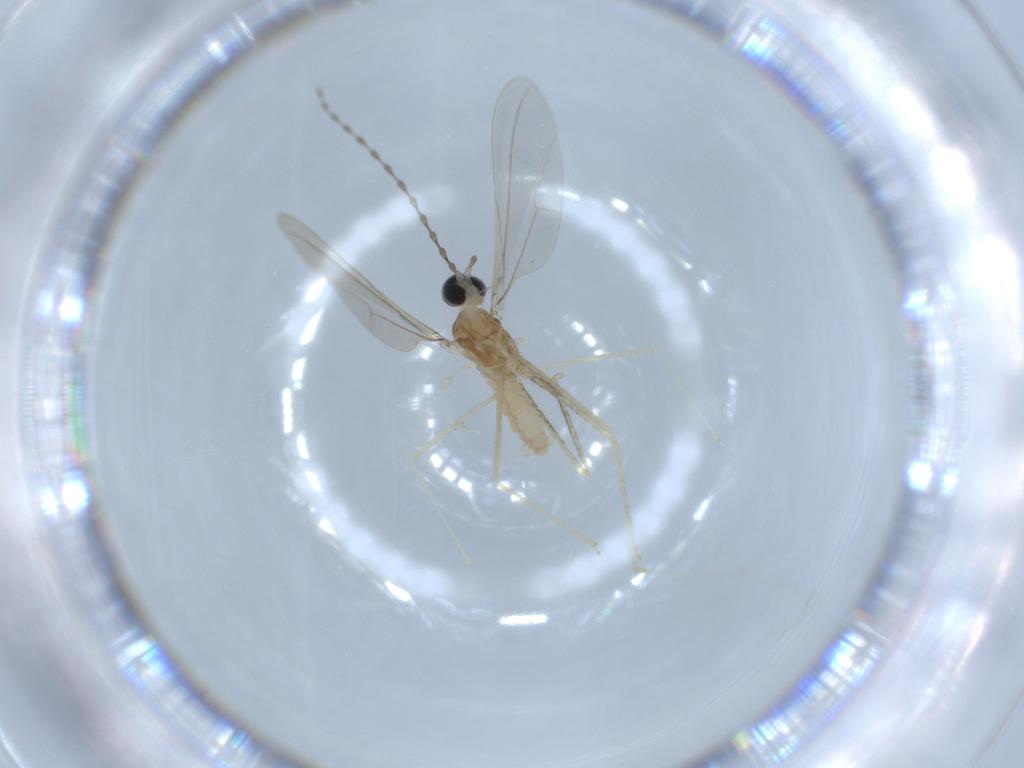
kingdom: Animalia
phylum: Arthropoda
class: Insecta
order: Diptera
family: Cecidomyiidae
